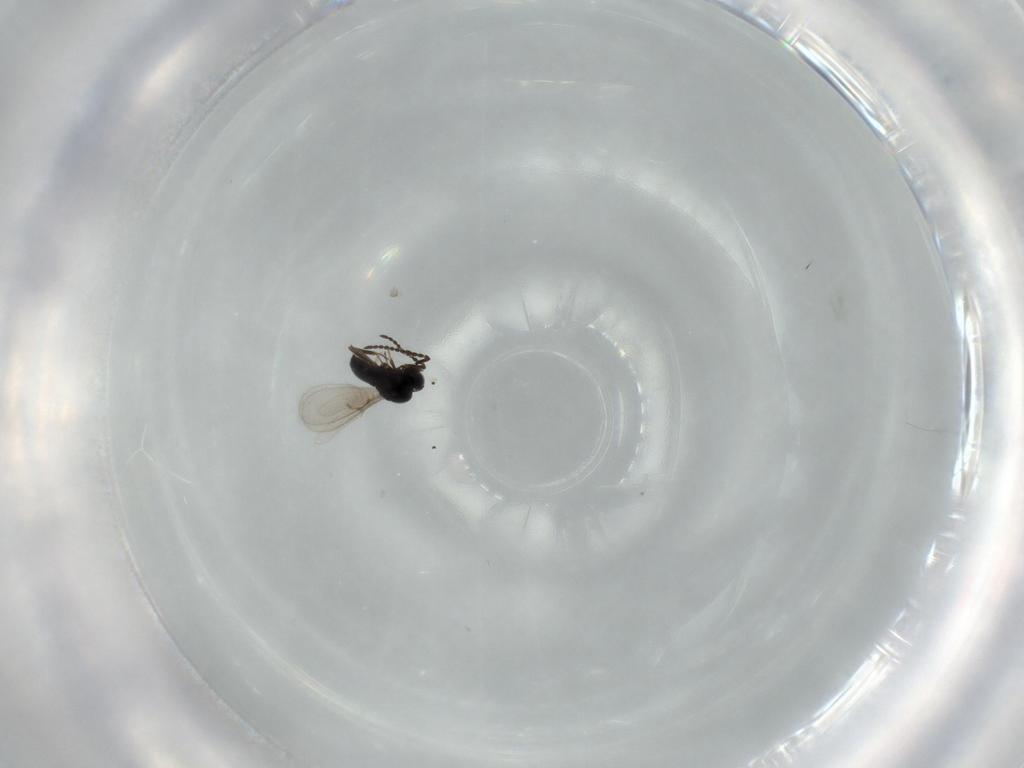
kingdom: Animalia
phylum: Arthropoda
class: Insecta
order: Hymenoptera
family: Scelionidae
